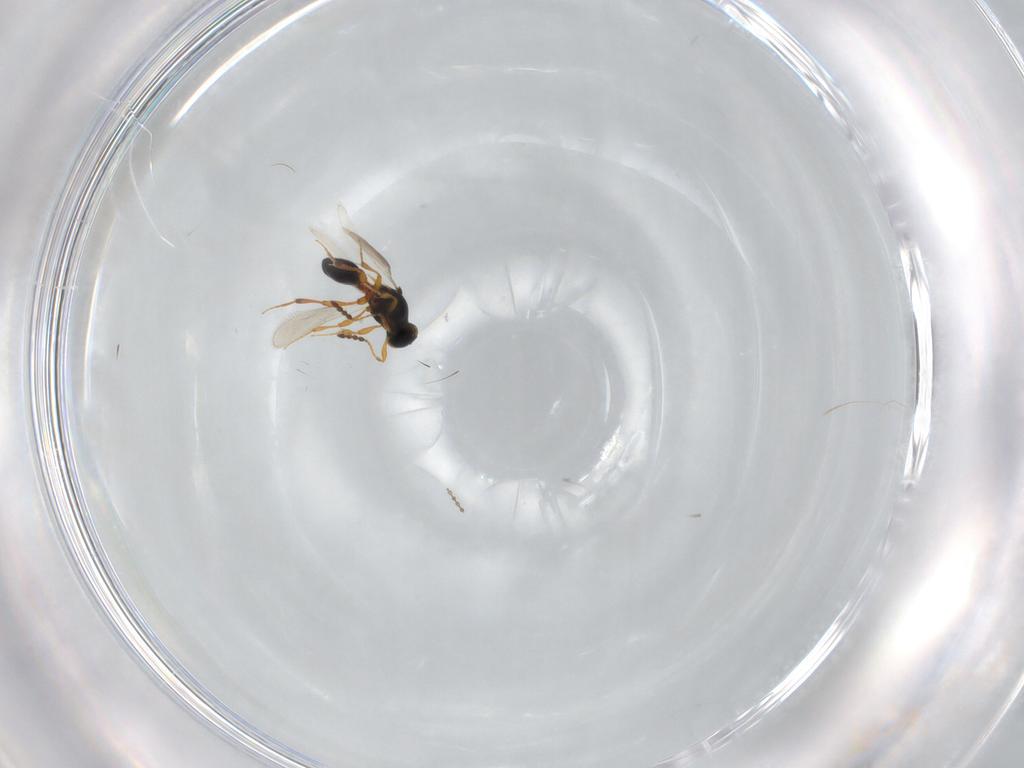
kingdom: Animalia
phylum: Arthropoda
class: Insecta
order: Hymenoptera
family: Platygastridae
